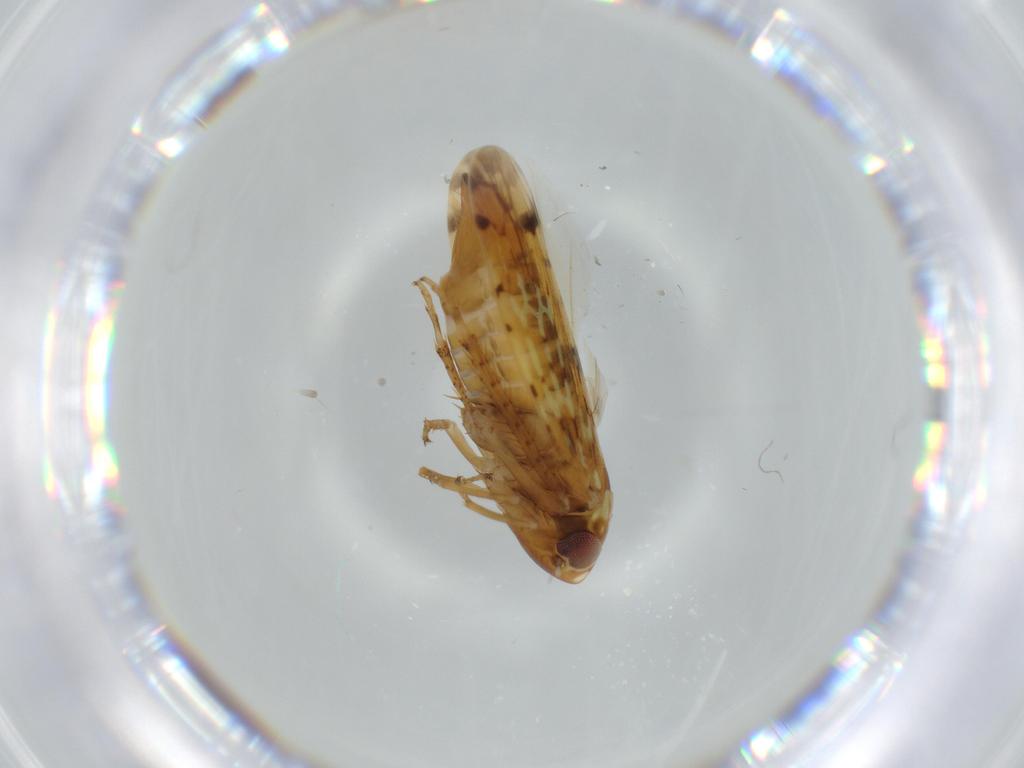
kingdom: Animalia
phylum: Arthropoda
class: Insecta
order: Hemiptera
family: Cicadellidae
